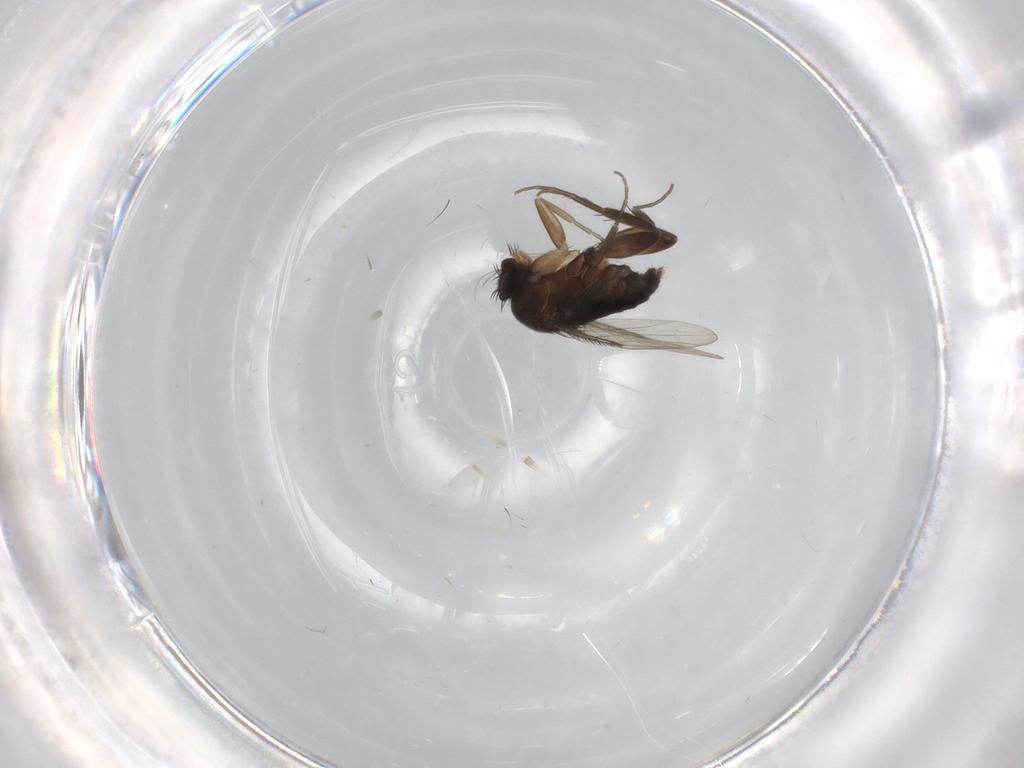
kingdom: Animalia
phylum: Arthropoda
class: Insecta
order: Diptera
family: Phoridae
